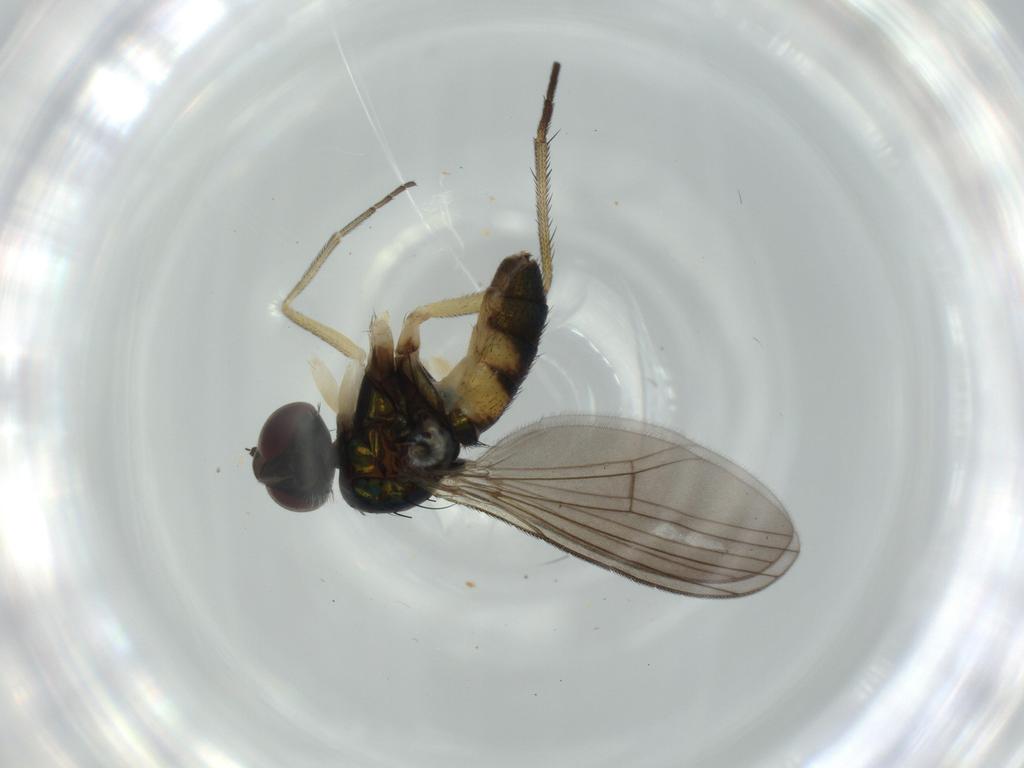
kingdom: Animalia
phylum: Arthropoda
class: Insecta
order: Diptera
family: Dolichopodidae
